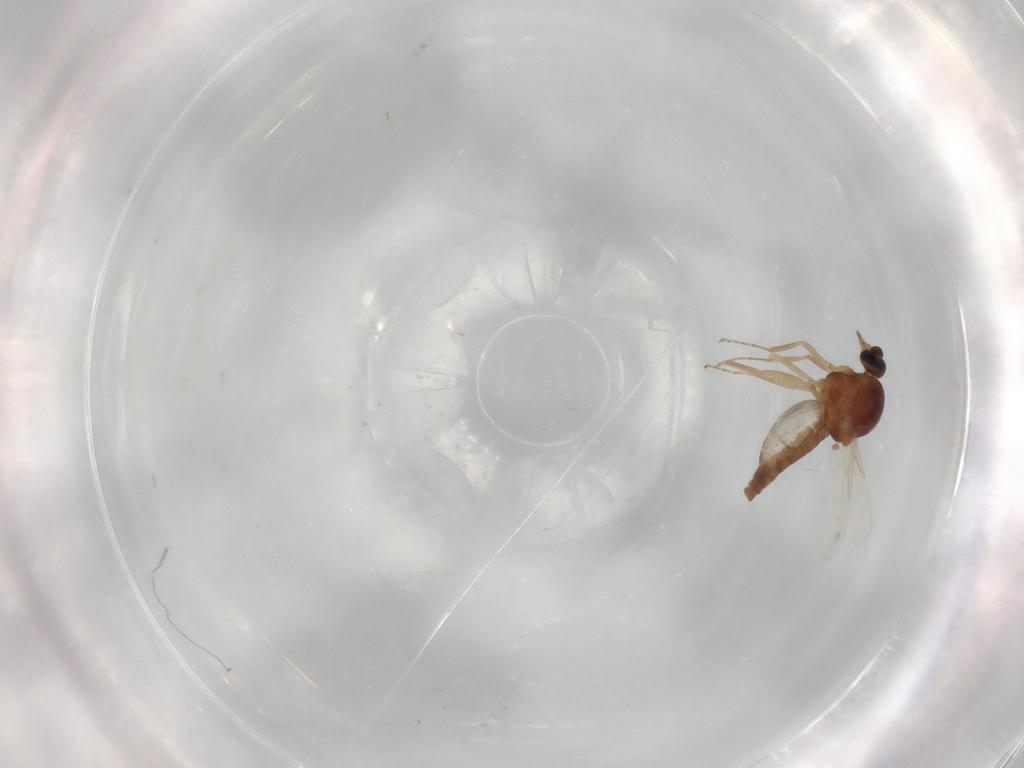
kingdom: Animalia
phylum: Arthropoda
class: Insecta
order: Diptera
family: Ceratopogonidae
